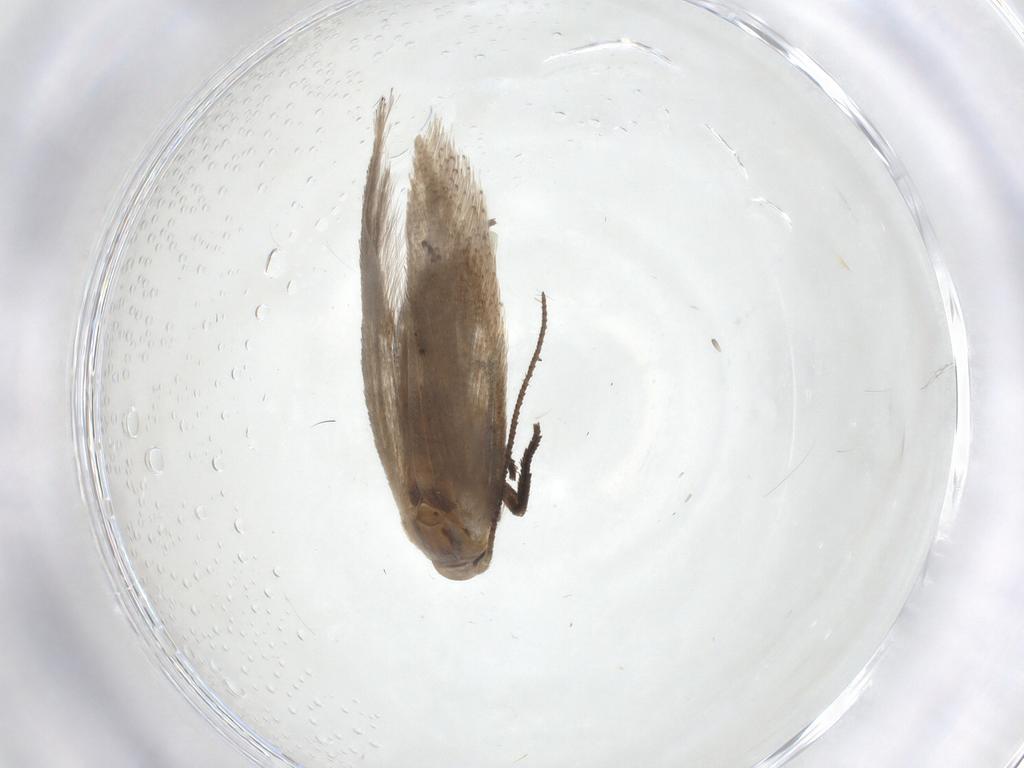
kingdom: Animalia
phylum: Arthropoda
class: Insecta
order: Lepidoptera
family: Elachistidae
